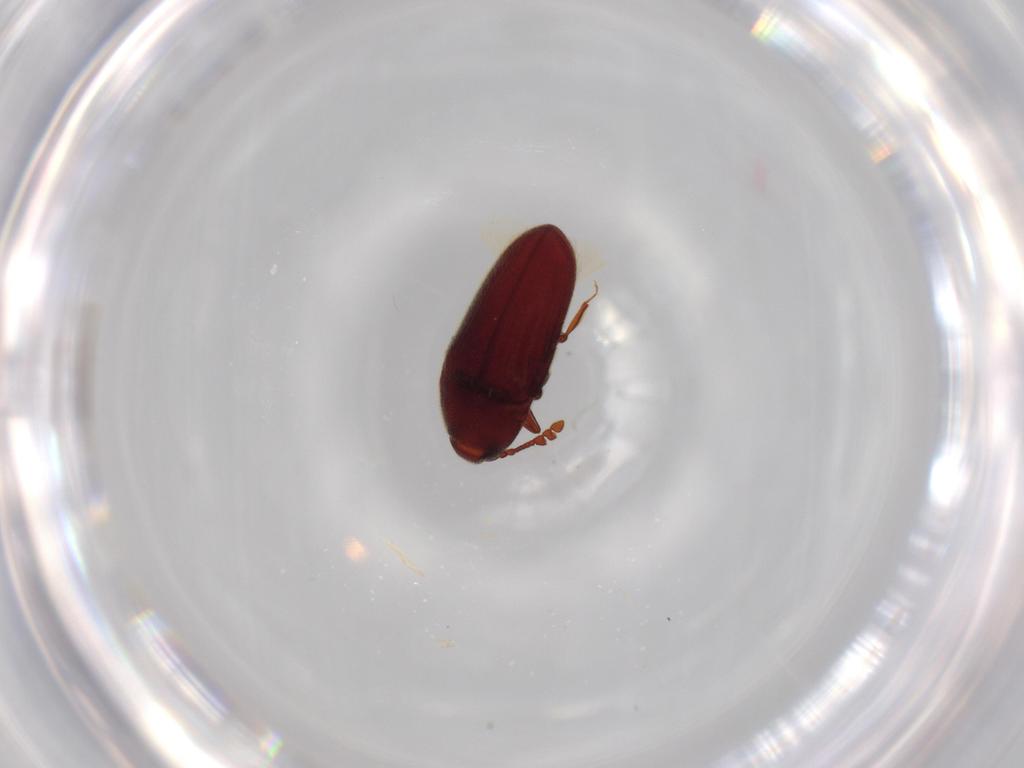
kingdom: Animalia
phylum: Arthropoda
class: Insecta
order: Coleoptera
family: Throscidae
